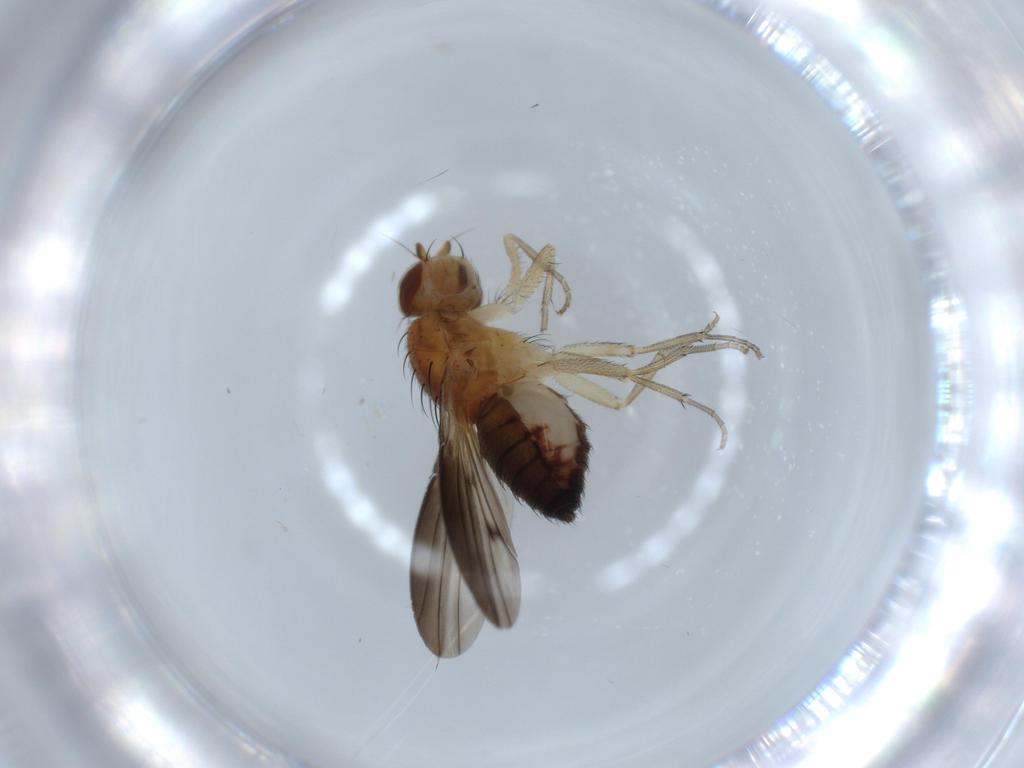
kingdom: Animalia
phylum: Arthropoda
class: Insecta
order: Diptera
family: Heleomyzidae
